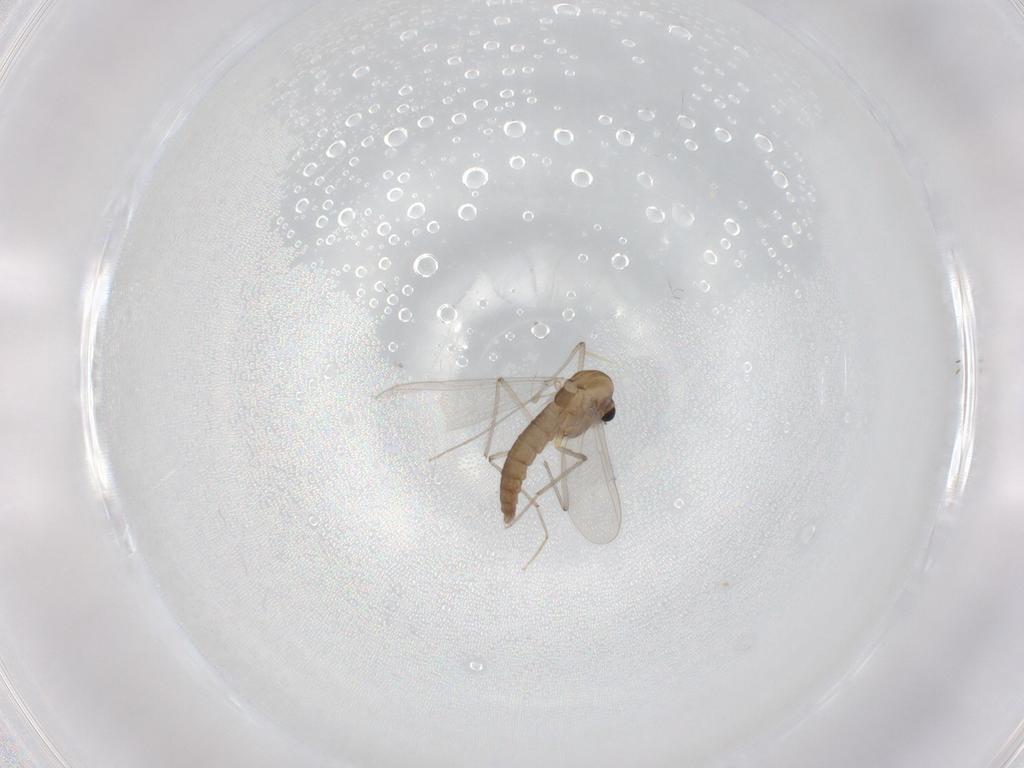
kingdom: Animalia
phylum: Arthropoda
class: Insecta
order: Diptera
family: Chironomidae
